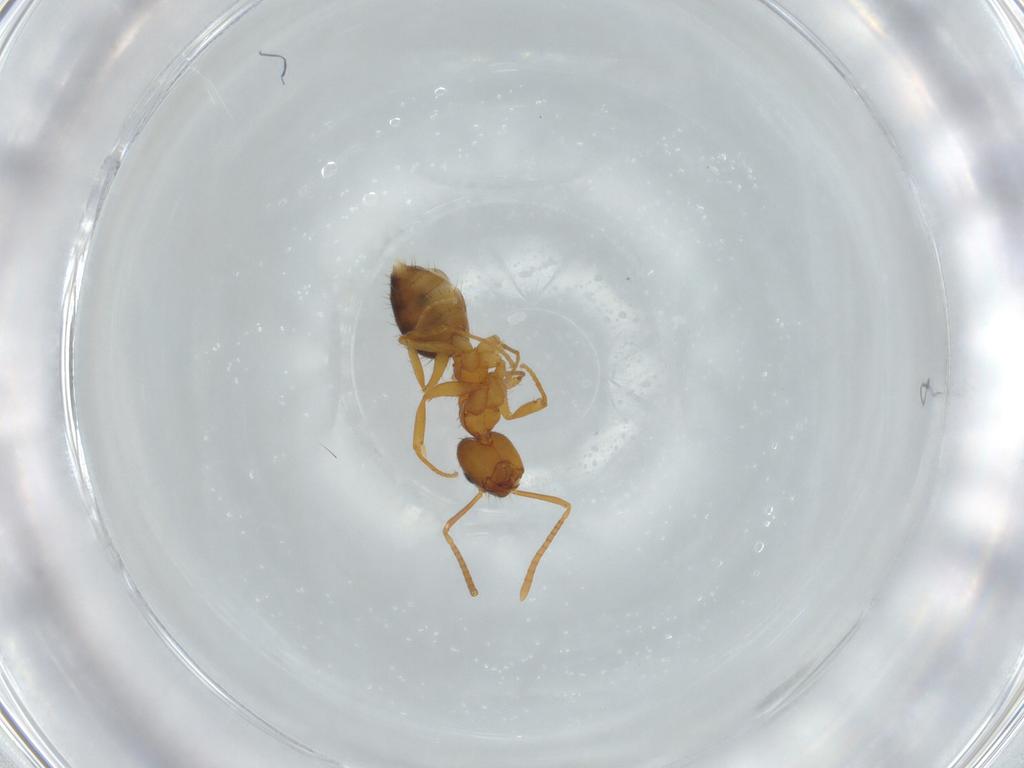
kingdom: Animalia
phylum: Arthropoda
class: Insecta
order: Hymenoptera
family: Formicidae
